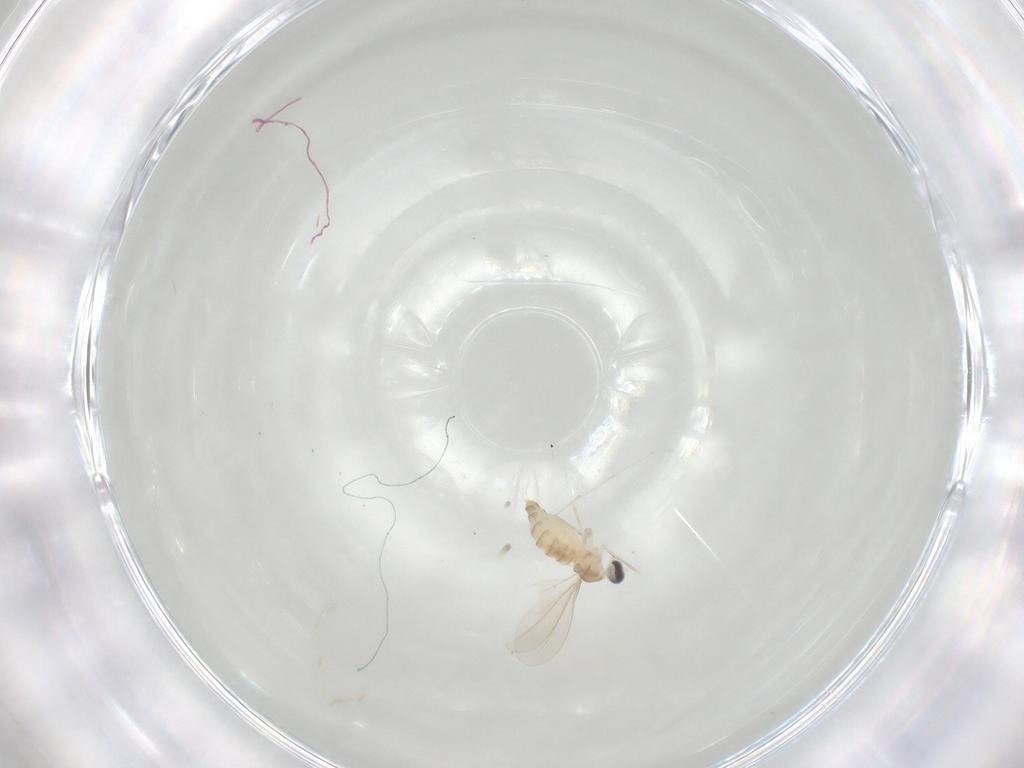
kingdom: Animalia
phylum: Arthropoda
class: Insecta
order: Diptera
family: Cecidomyiidae
